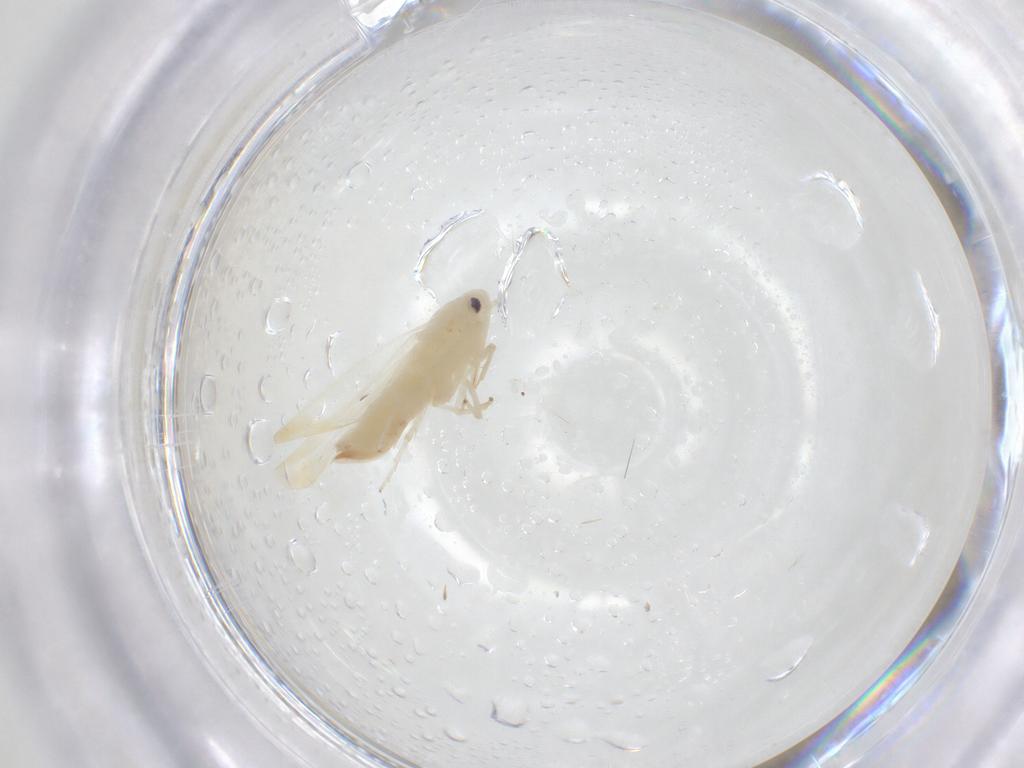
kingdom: Animalia
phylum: Arthropoda
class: Insecta
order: Hemiptera
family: Cicadellidae
